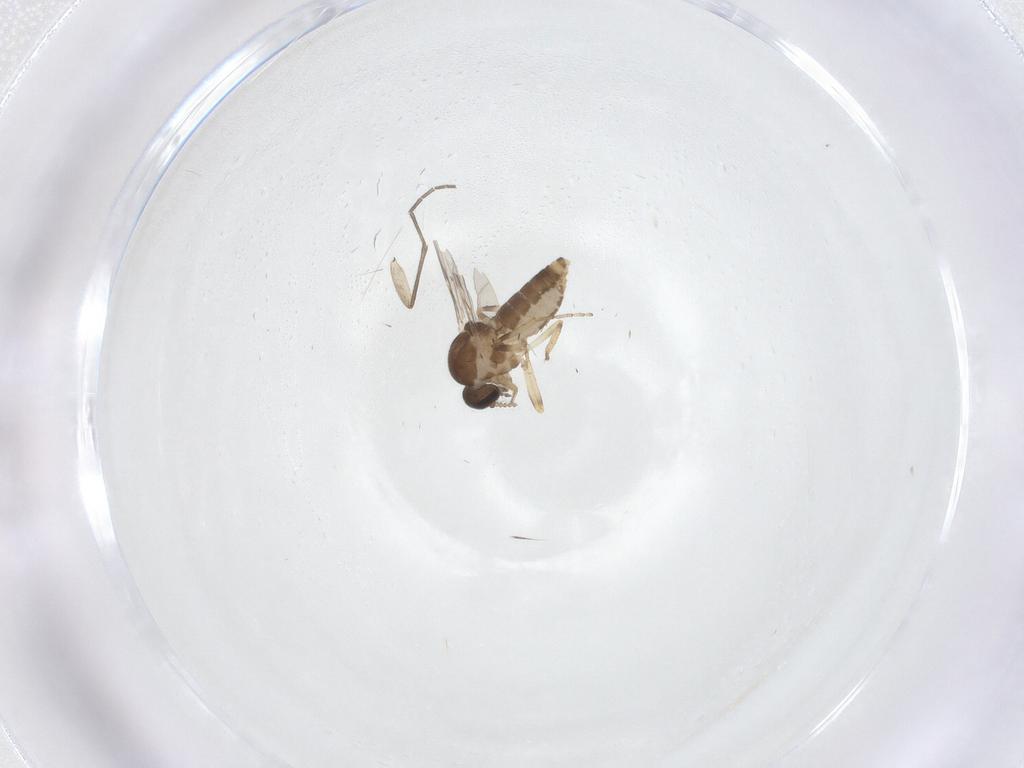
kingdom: Animalia
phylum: Arthropoda
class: Insecta
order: Diptera
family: Ceratopogonidae
